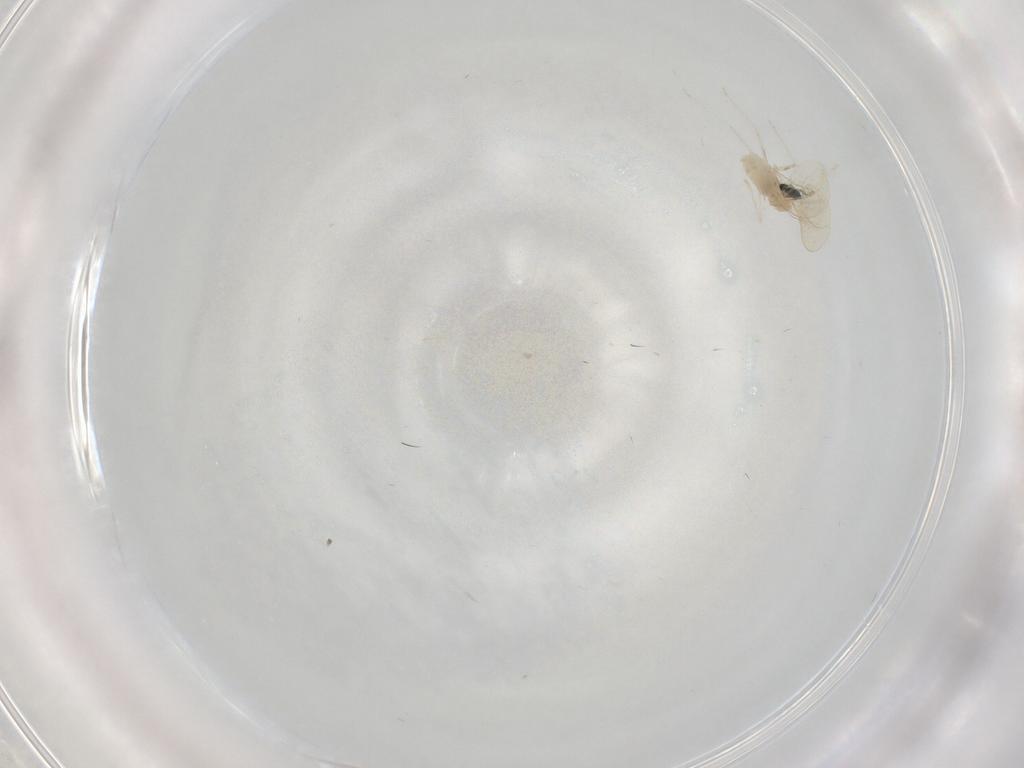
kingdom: Animalia
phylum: Arthropoda
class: Insecta
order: Diptera
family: Cecidomyiidae
